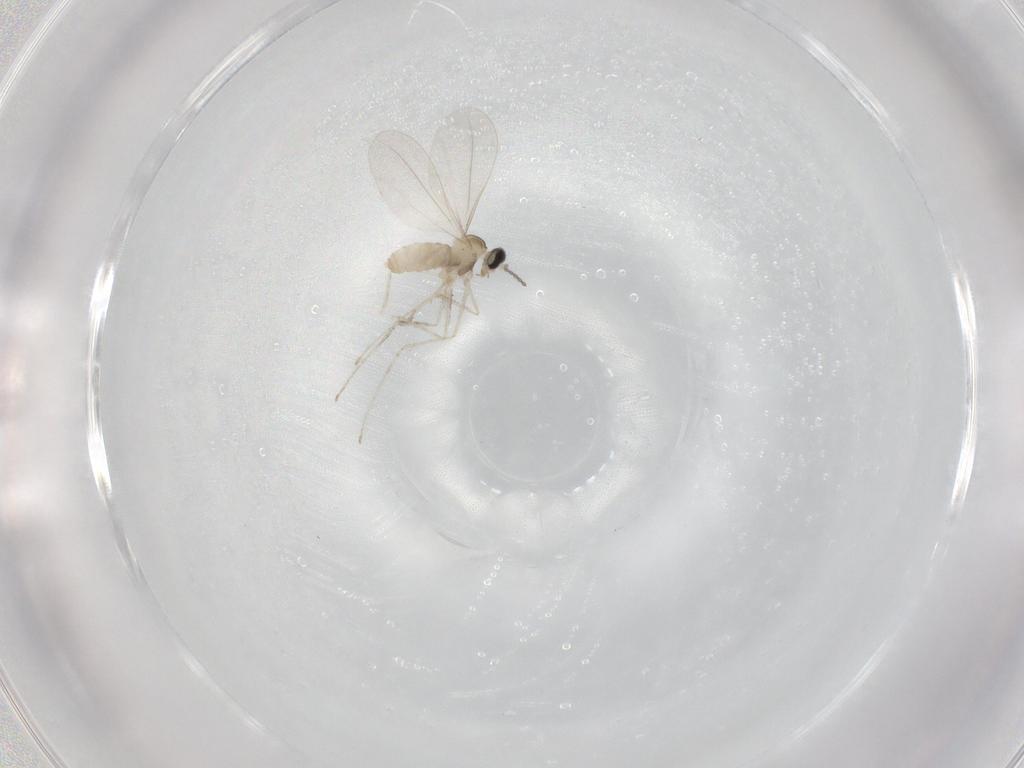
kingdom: Animalia
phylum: Arthropoda
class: Insecta
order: Diptera
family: Cecidomyiidae
